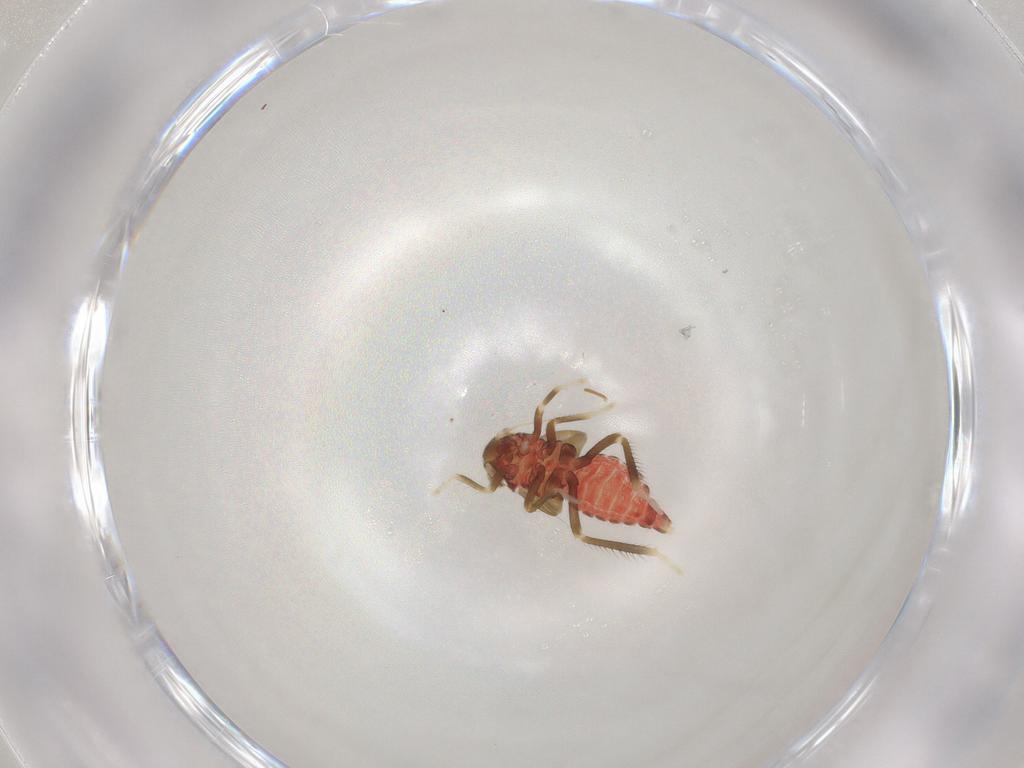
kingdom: Animalia
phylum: Arthropoda
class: Insecta
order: Hemiptera
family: Cicadellidae
